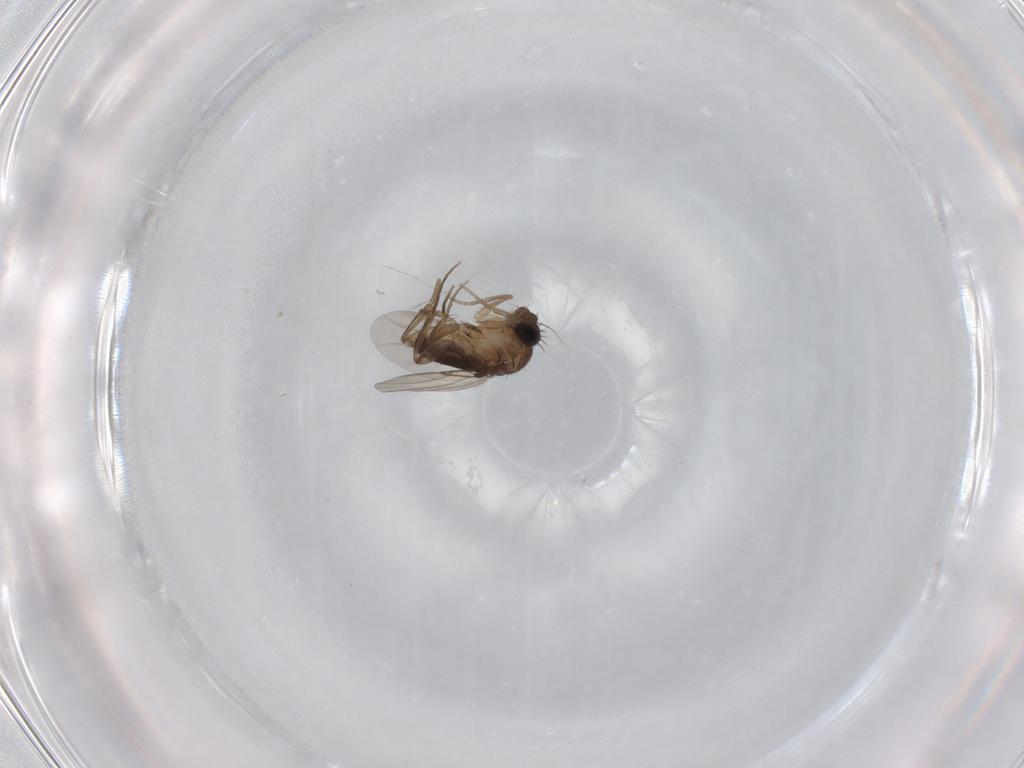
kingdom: Animalia
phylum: Arthropoda
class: Insecta
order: Diptera
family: Phoridae
